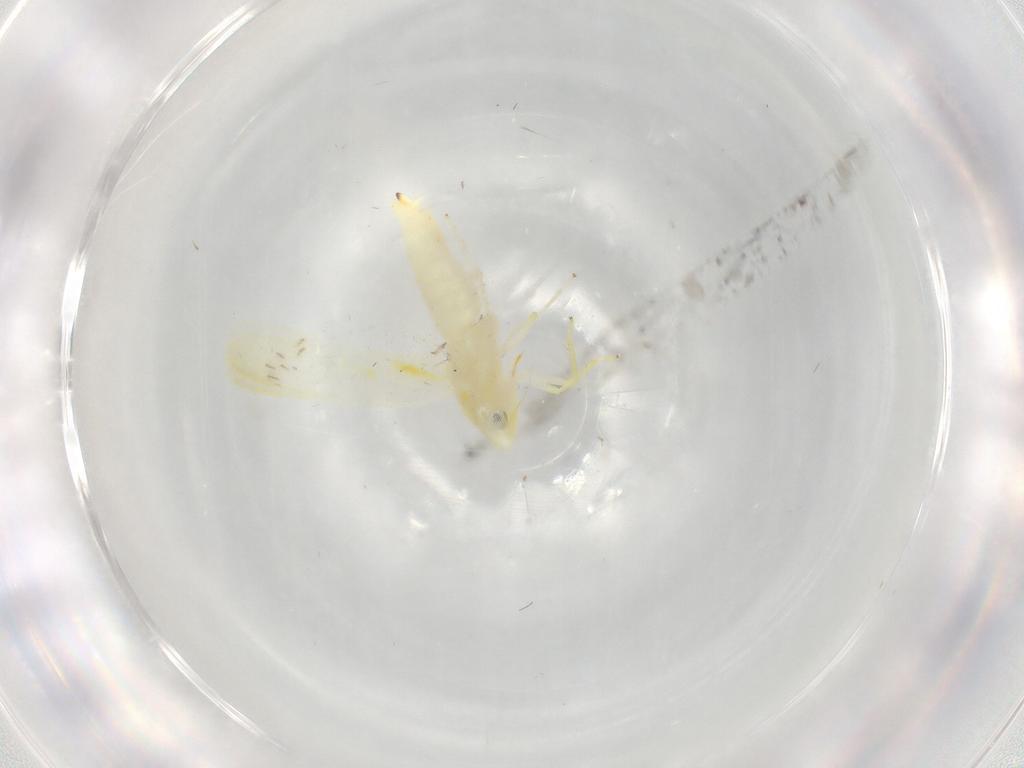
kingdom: Animalia
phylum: Arthropoda
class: Insecta
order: Hemiptera
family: Cicadellidae
